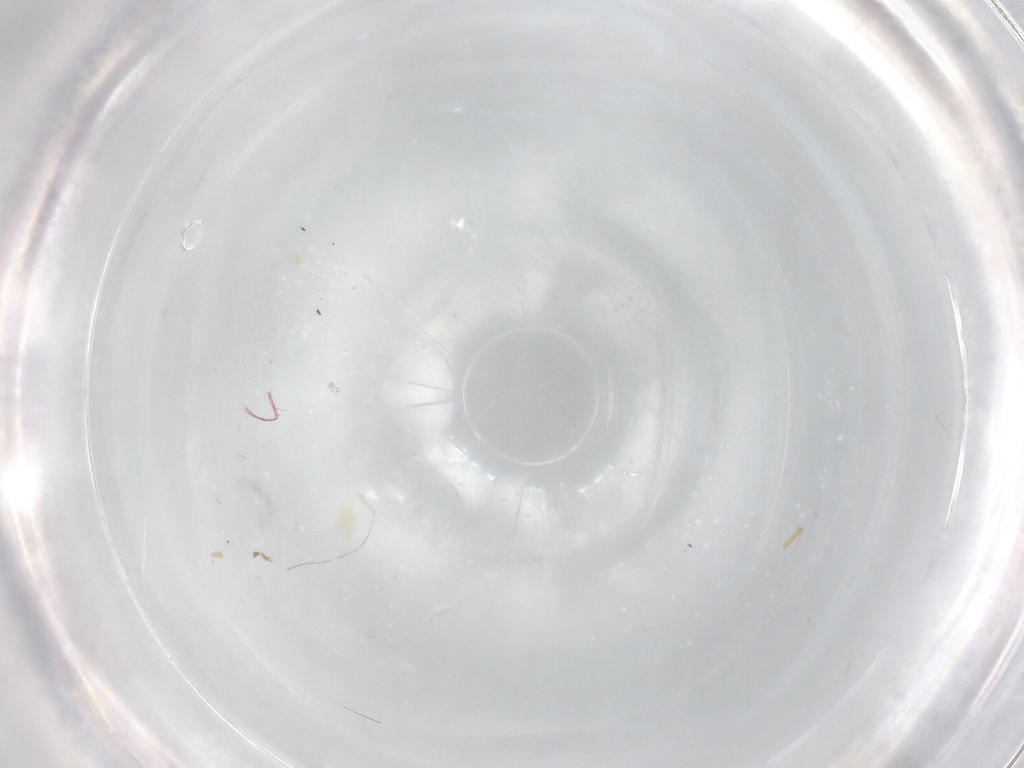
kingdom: Animalia
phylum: Arthropoda
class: Arachnida
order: Trombidiformes
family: Eupodidae
